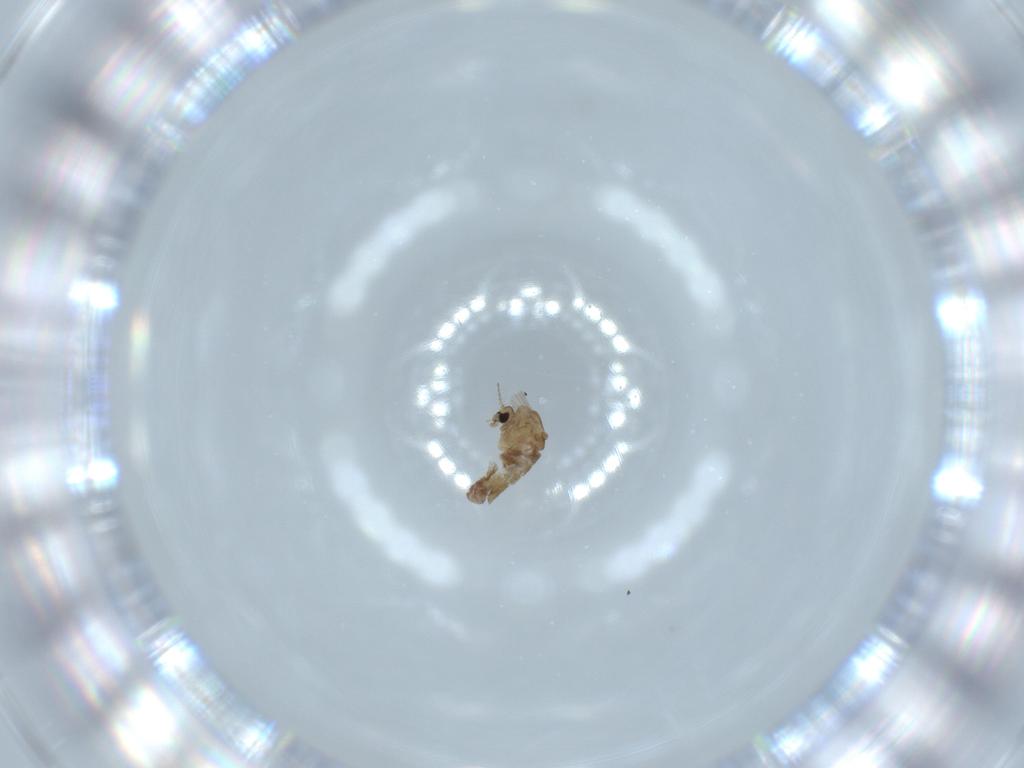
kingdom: Animalia
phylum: Arthropoda
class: Insecta
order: Diptera
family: Chironomidae
